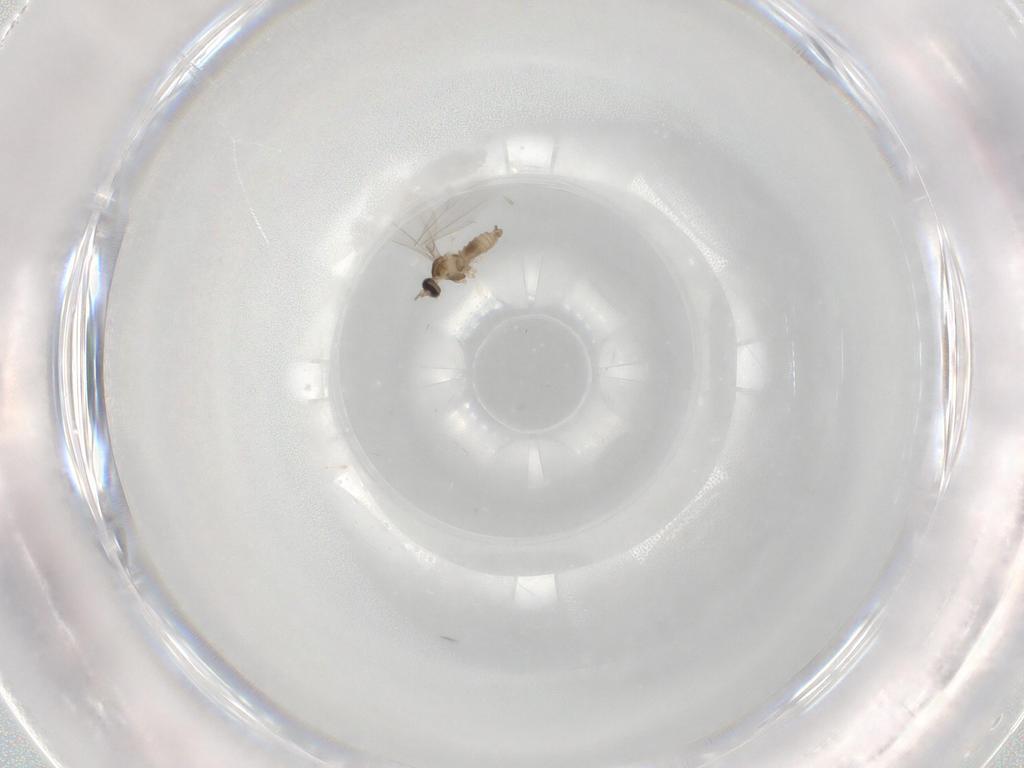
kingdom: Animalia
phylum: Arthropoda
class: Insecta
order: Diptera
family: Cecidomyiidae
